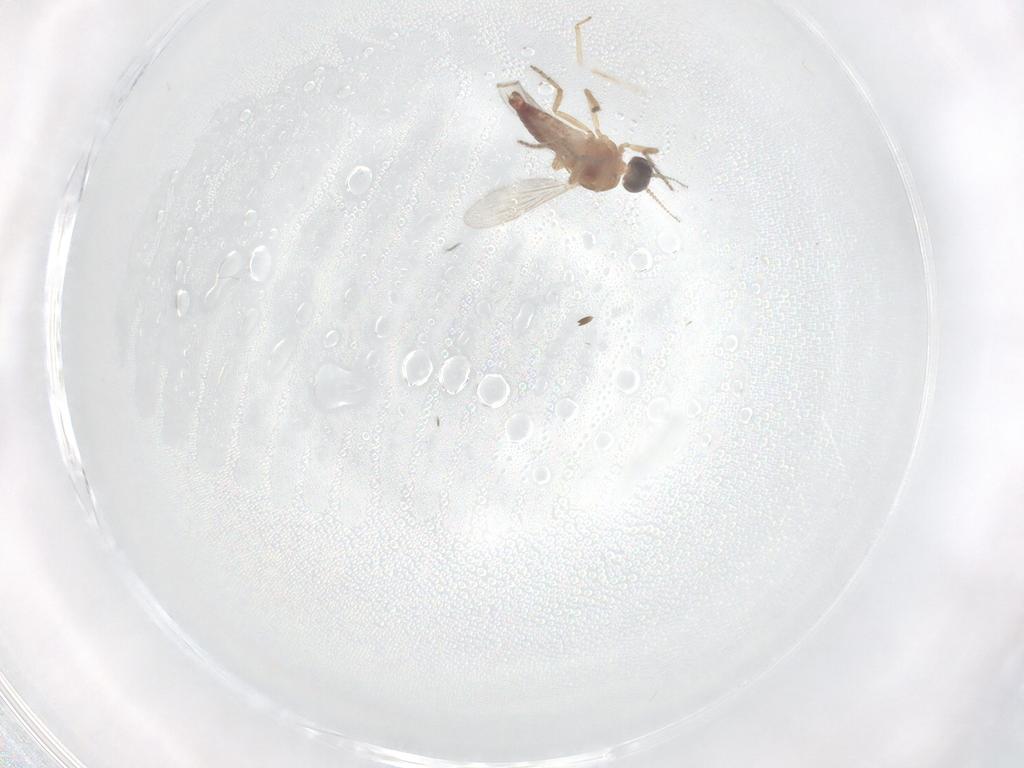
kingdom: Animalia
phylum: Arthropoda
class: Insecta
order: Diptera
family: Ceratopogonidae
